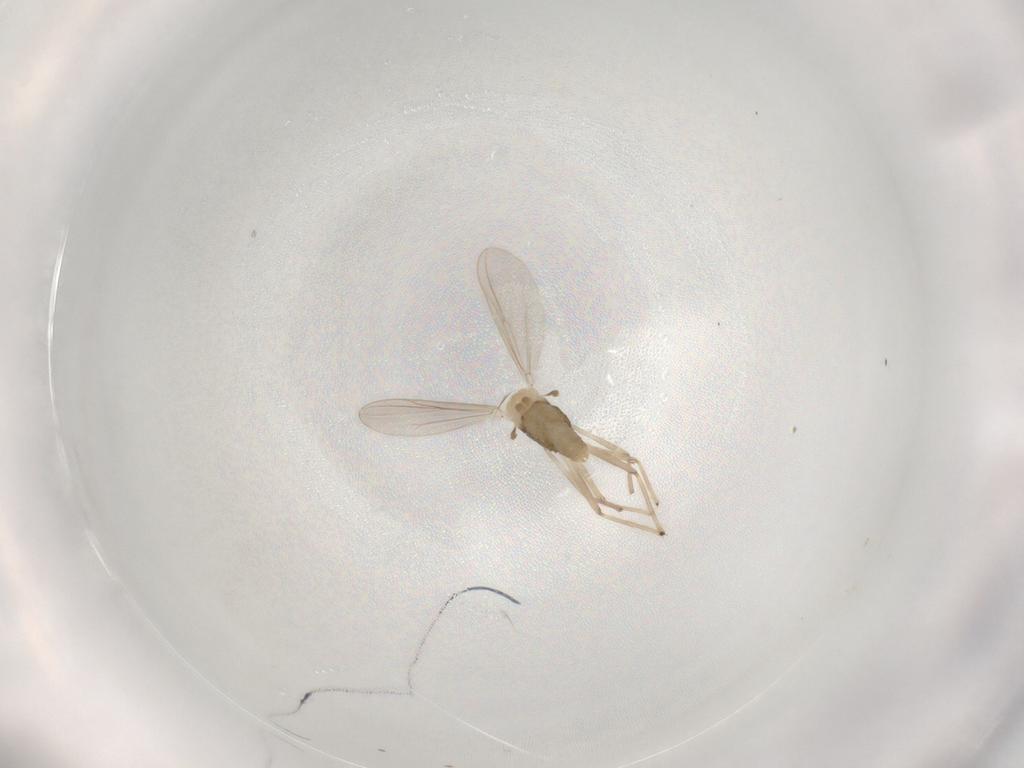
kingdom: Animalia
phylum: Arthropoda
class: Insecta
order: Diptera
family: Chironomidae
